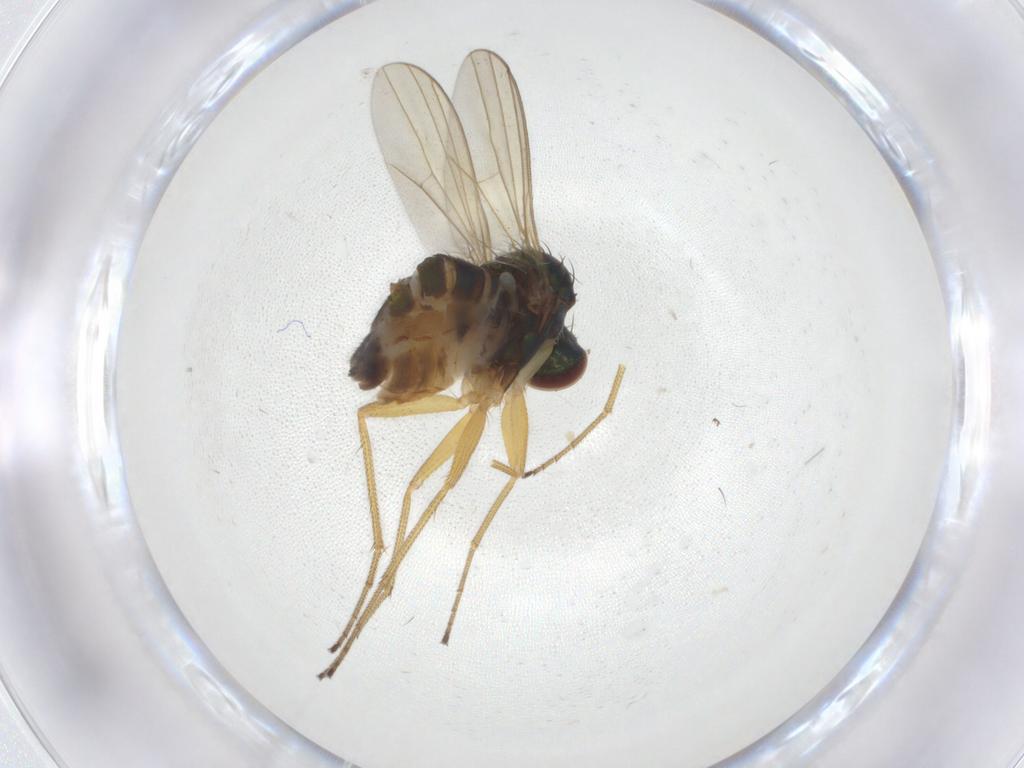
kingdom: Animalia
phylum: Arthropoda
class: Insecta
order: Diptera
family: Dolichopodidae
